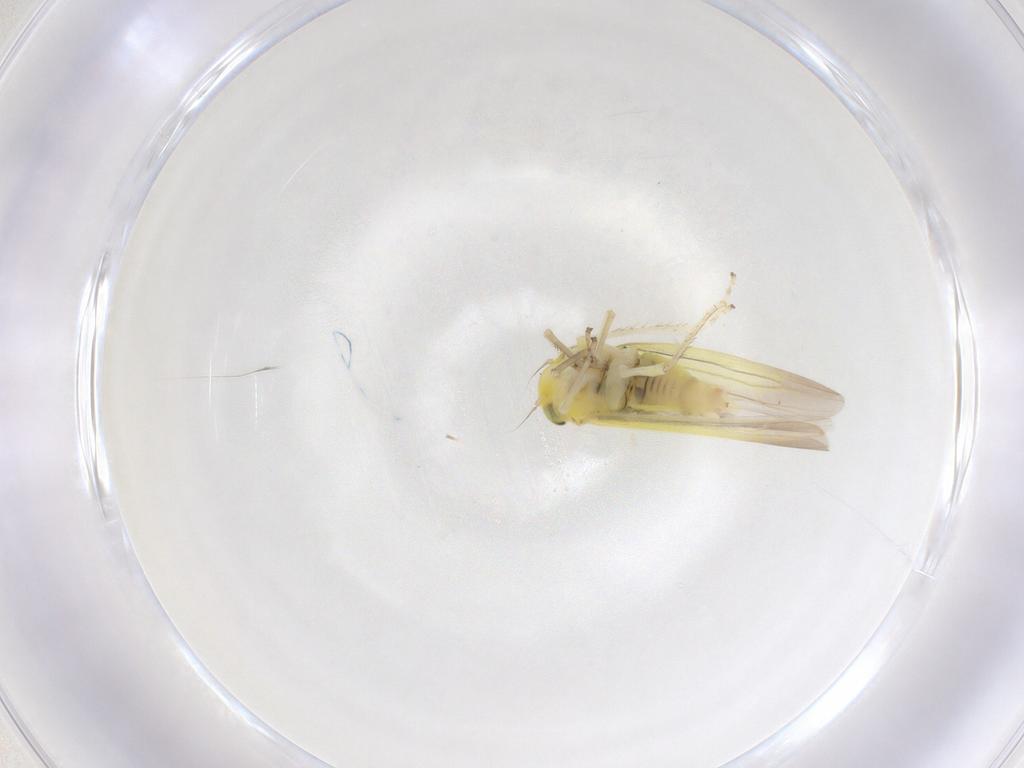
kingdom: Animalia
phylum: Arthropoda
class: Insecta
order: Hemiptera
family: Cicadellidae
